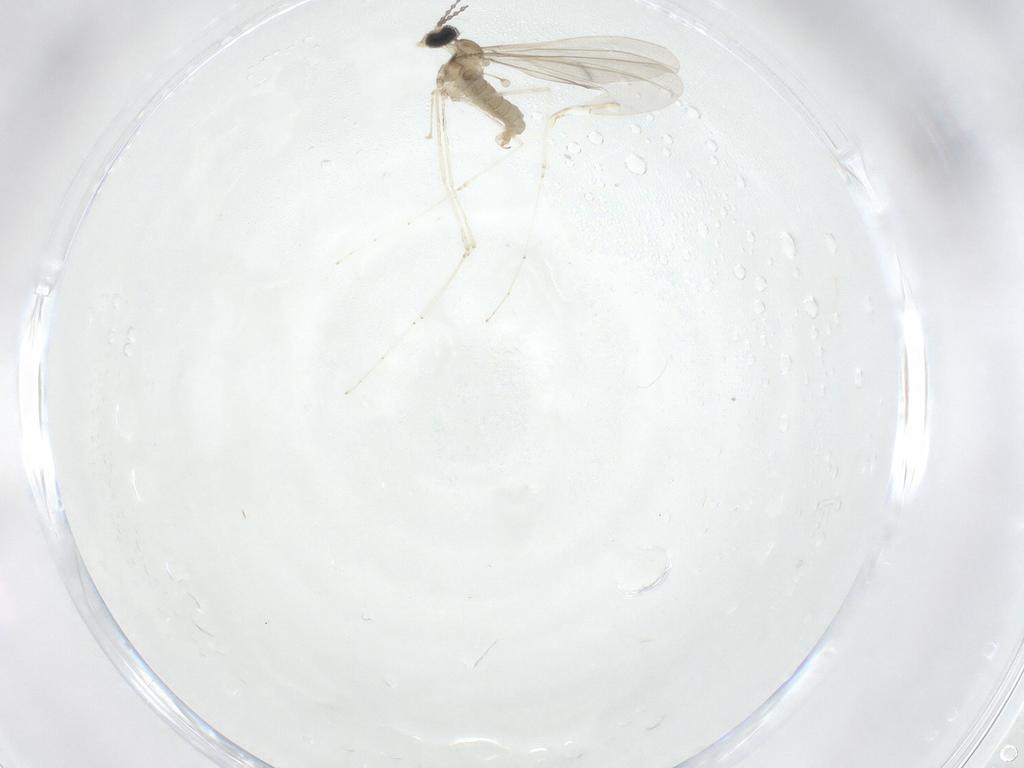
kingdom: Animalia
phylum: Arthropoda
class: Insecta
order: Diptera
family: Cecidomyiidae
